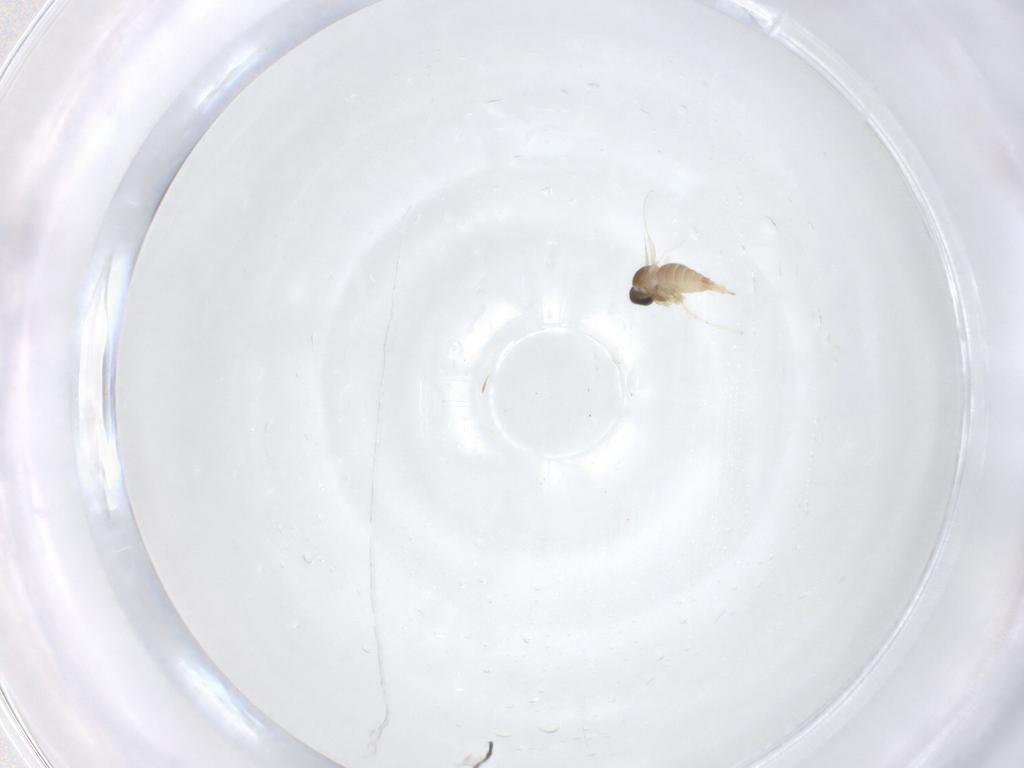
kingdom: Animalia
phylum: Arthropoda
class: Insecta
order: Diptera
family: Cecidomyiidae
